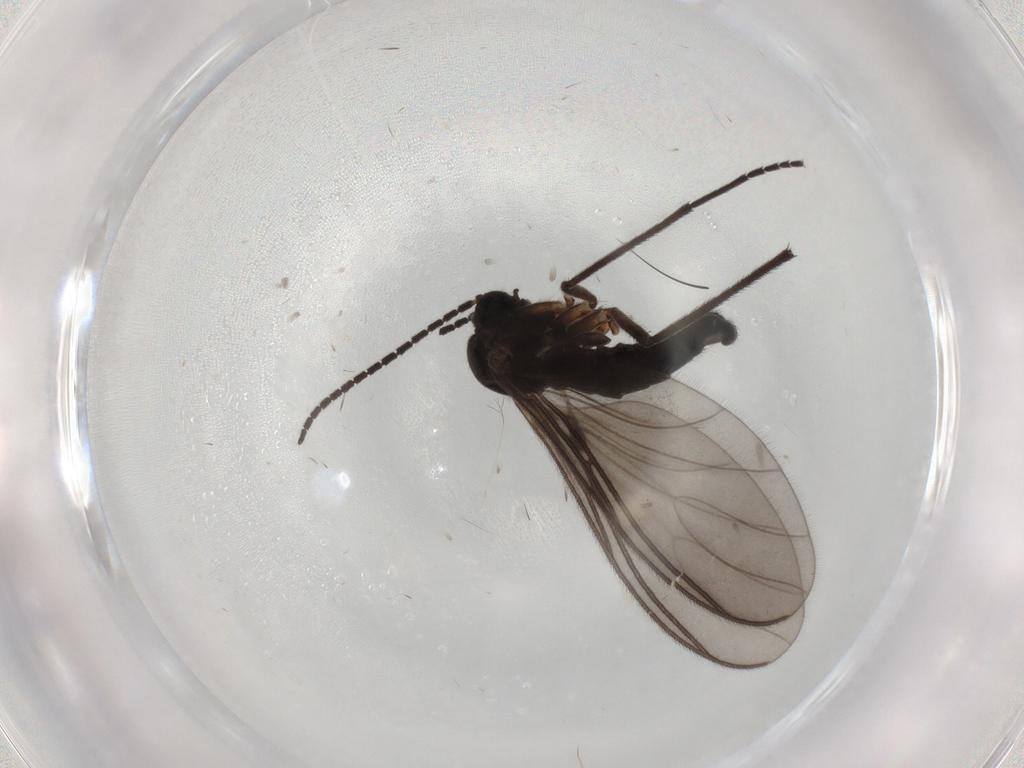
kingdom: Animalia
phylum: Arthropoda
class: Insecta
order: Diptera
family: Sciaridae
